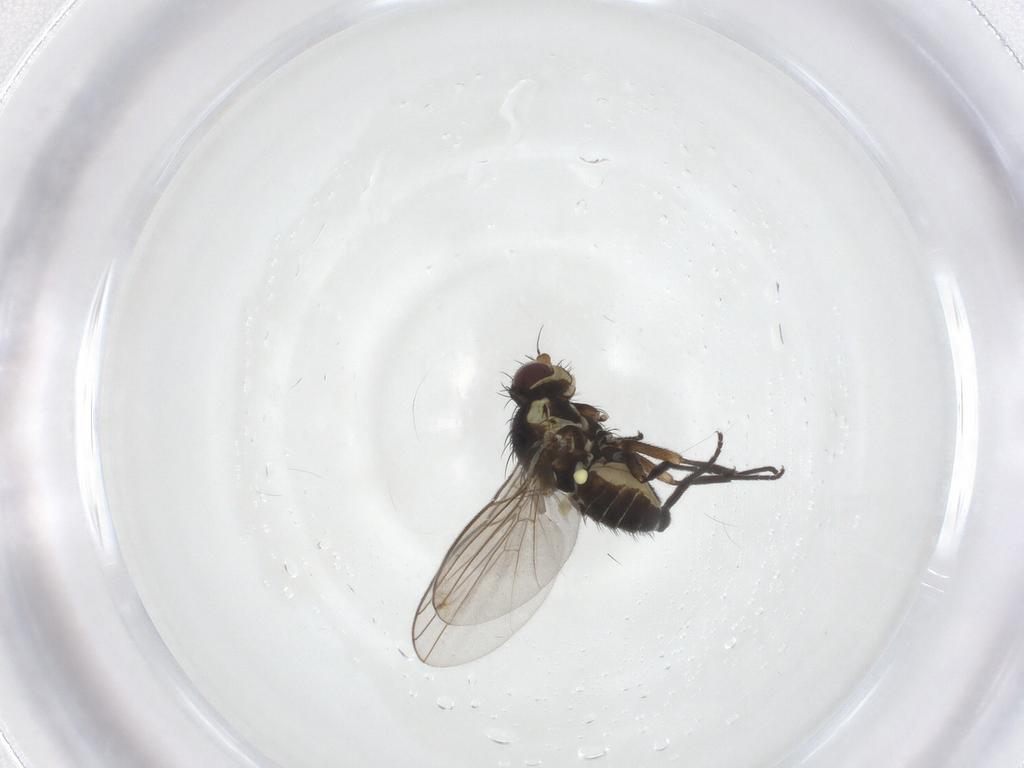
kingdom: Animalia
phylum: Arthropoda
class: Insecta
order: Diptera
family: Agromyzidae
